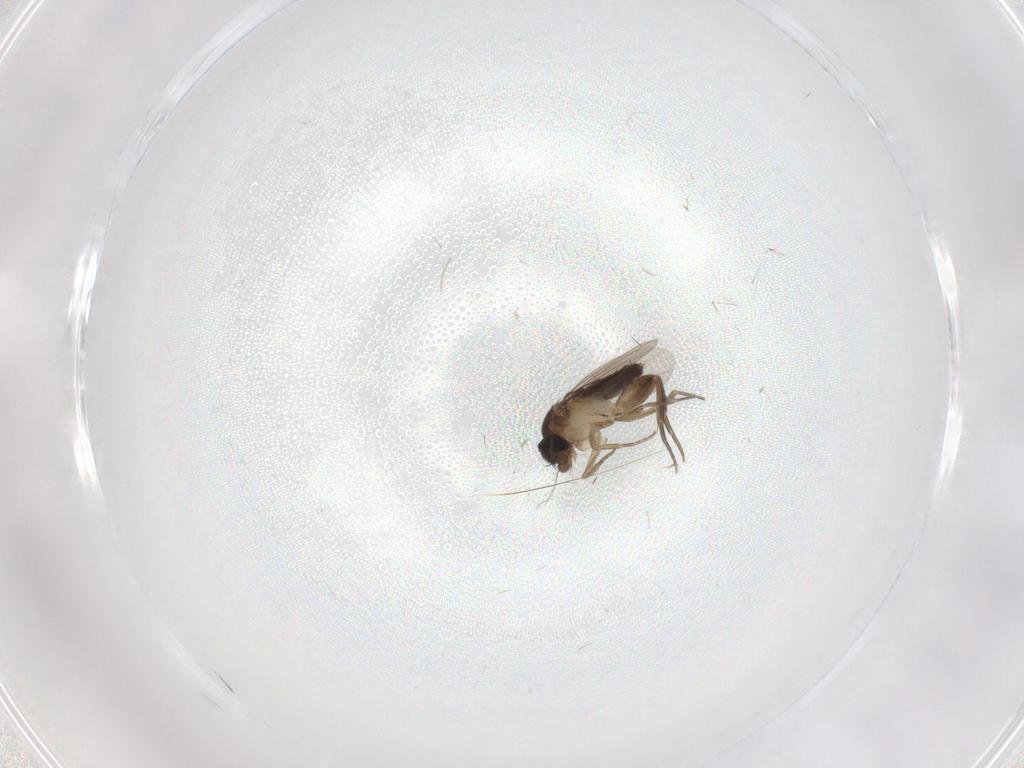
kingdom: Animalia
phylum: Arthropoda
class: Insecta
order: Diptera
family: Phoridae
